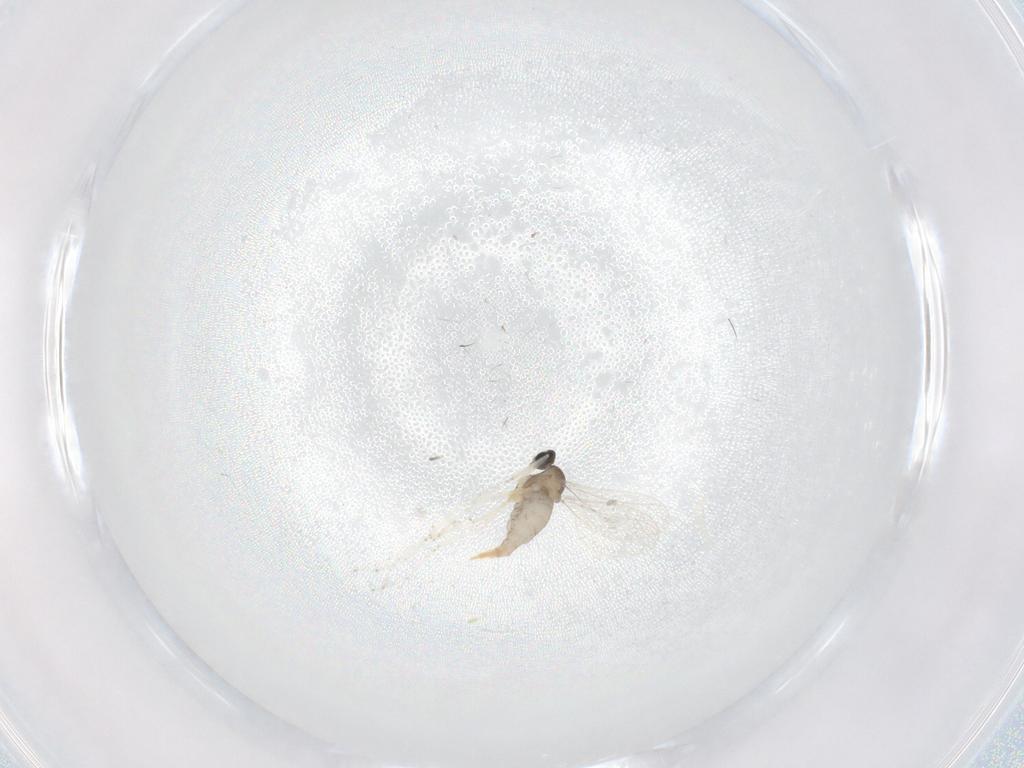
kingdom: Animalia
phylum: Arthropoda
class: Insecta
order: Diptera
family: Cecidomyiidae
